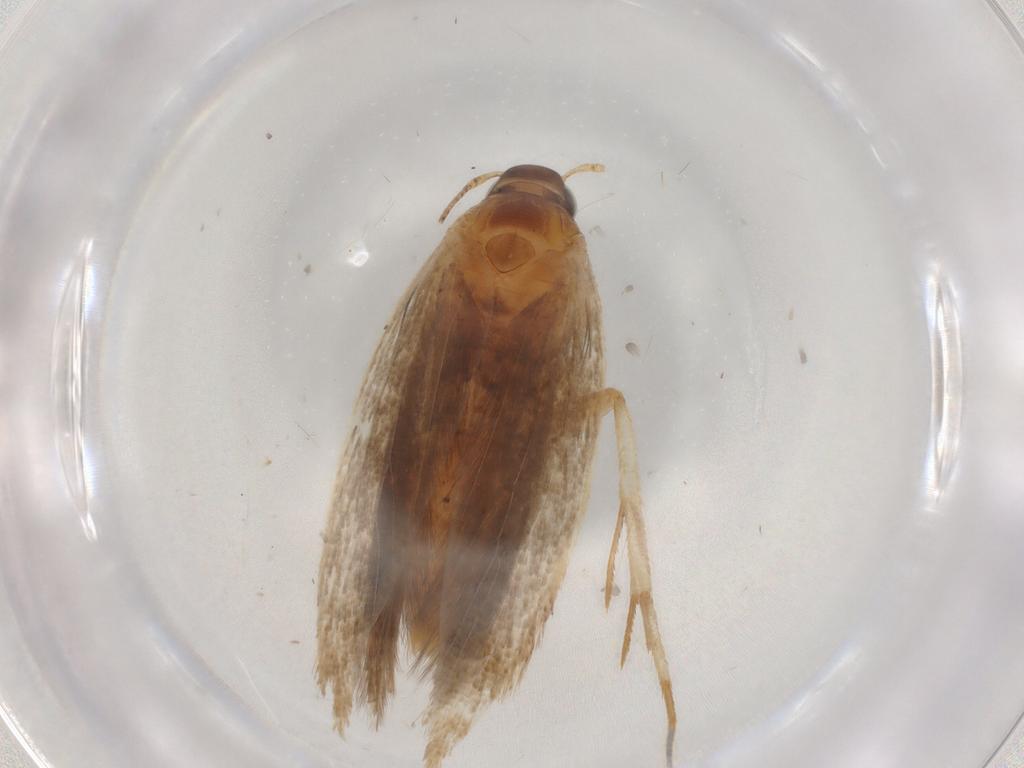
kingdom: Animalia
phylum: Arthropoda
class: Insecta
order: Lepidoptera
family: Gelechiidae
